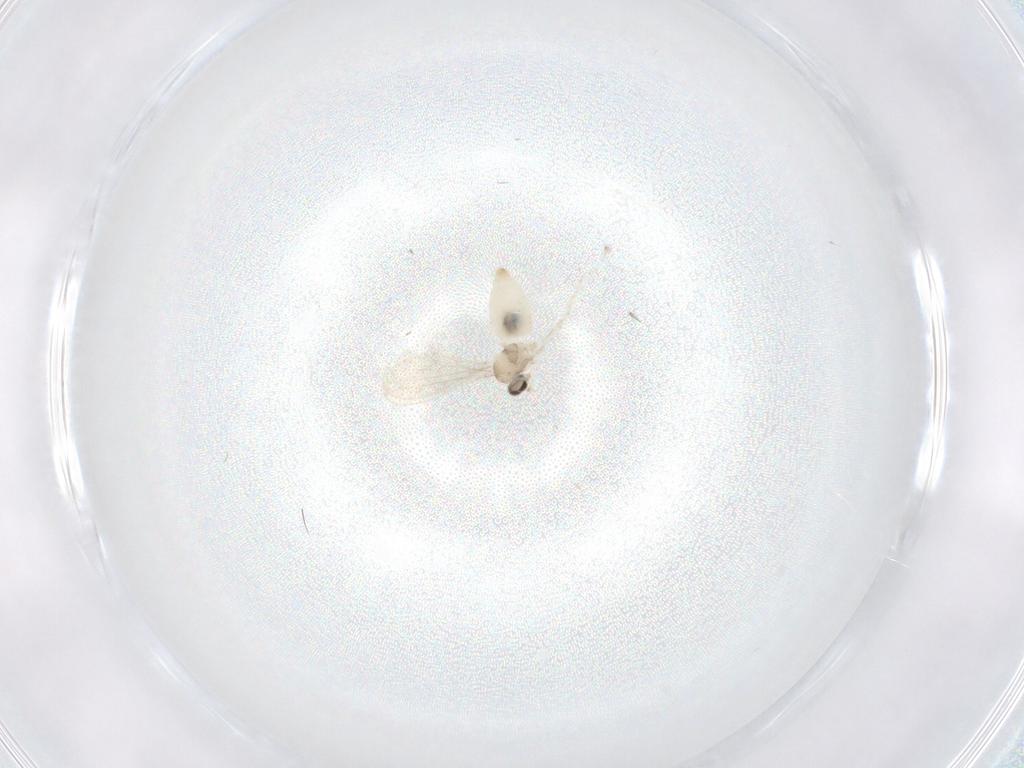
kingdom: Animalia
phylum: Arthropoda
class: Insecta
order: Diptera
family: Cecidomyiidae
